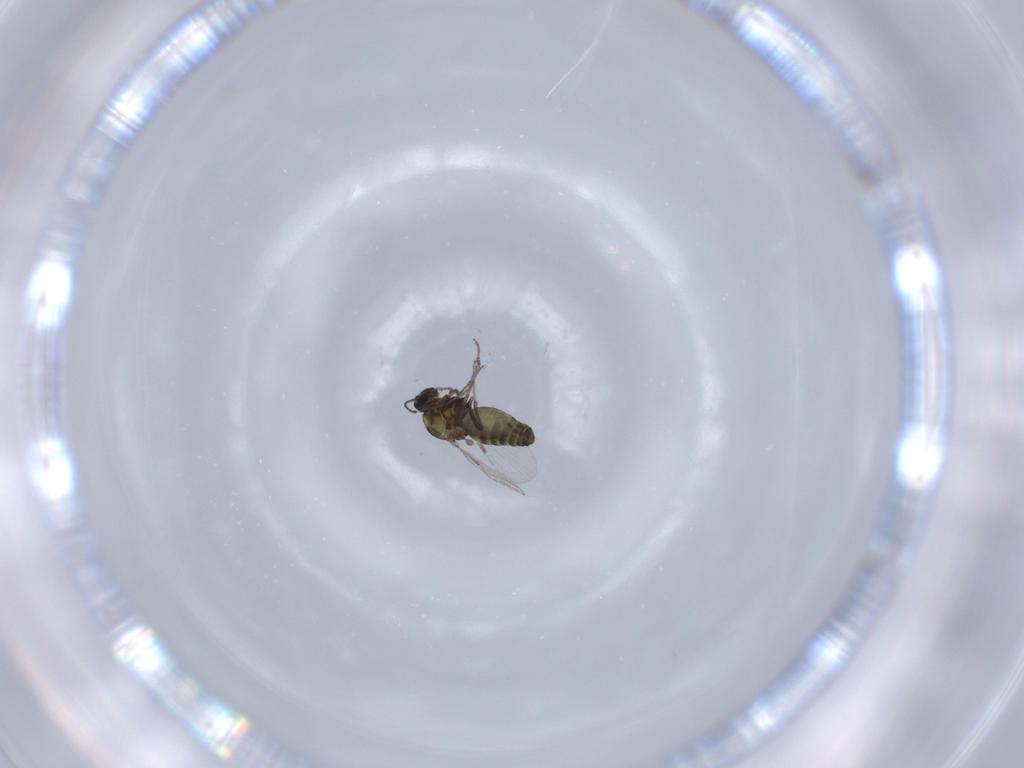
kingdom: Animalia
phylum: Arthropoda
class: Insecta
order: Diptera
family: Ceratopogonidae
